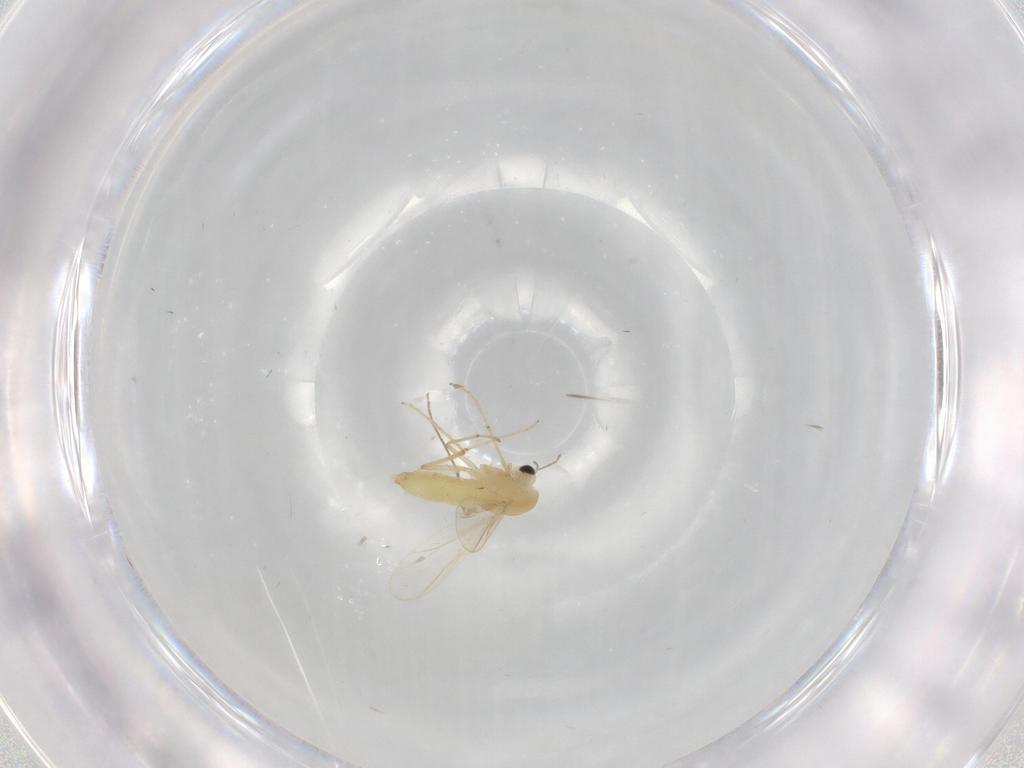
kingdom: Animalia
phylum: Arthropoda
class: Insecta
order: Diptera
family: Chironomidae
